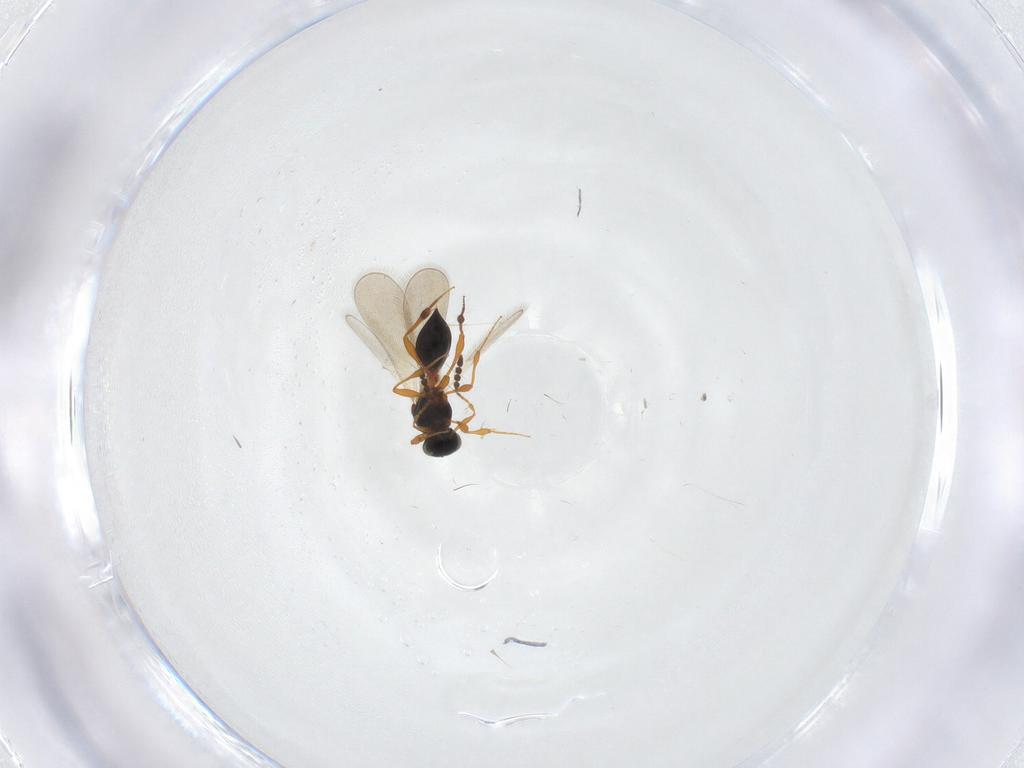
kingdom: Animalia
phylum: Arthropoda
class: Insecta
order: Hymenoptera
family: Platygastridae
